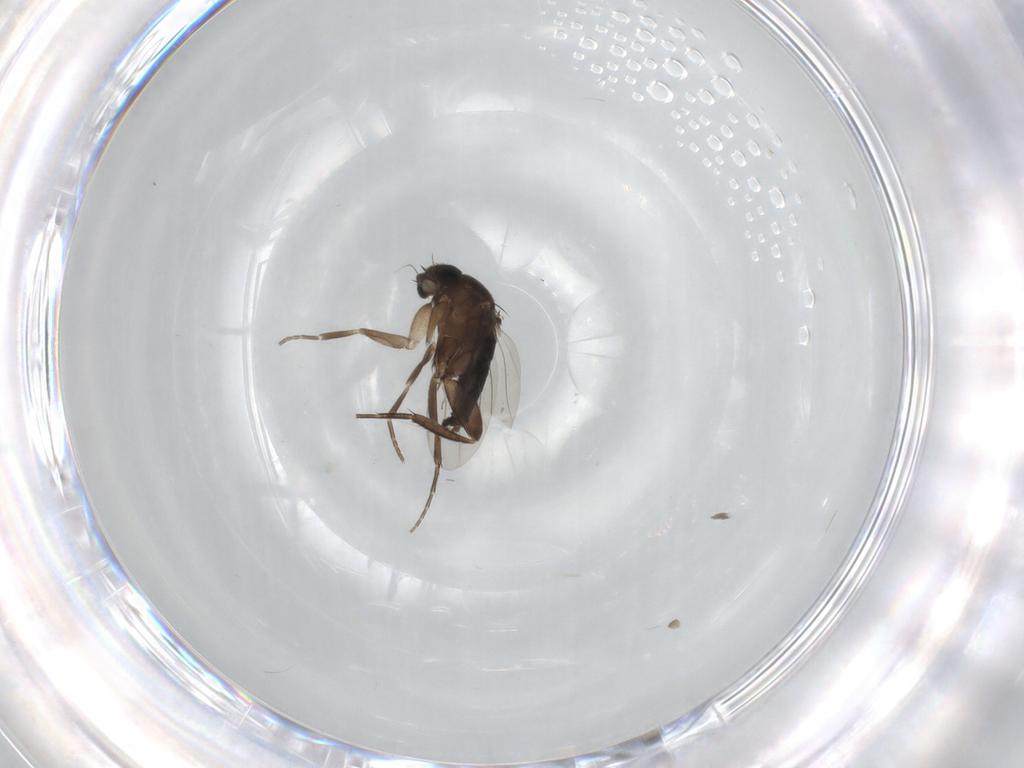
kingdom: Animalia
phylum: Arthropoda
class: Insecta
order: Diptera
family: Phoridae
